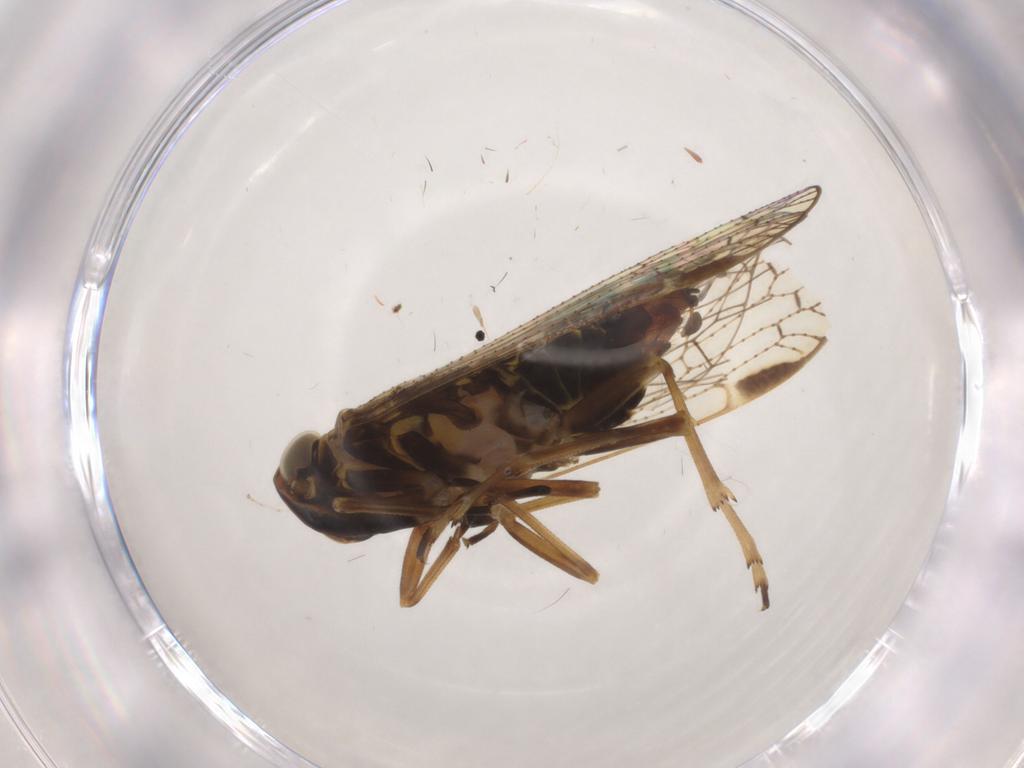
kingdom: Animalia
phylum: Arthropoda
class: Insecta
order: Hemiptera
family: Cixiidae
